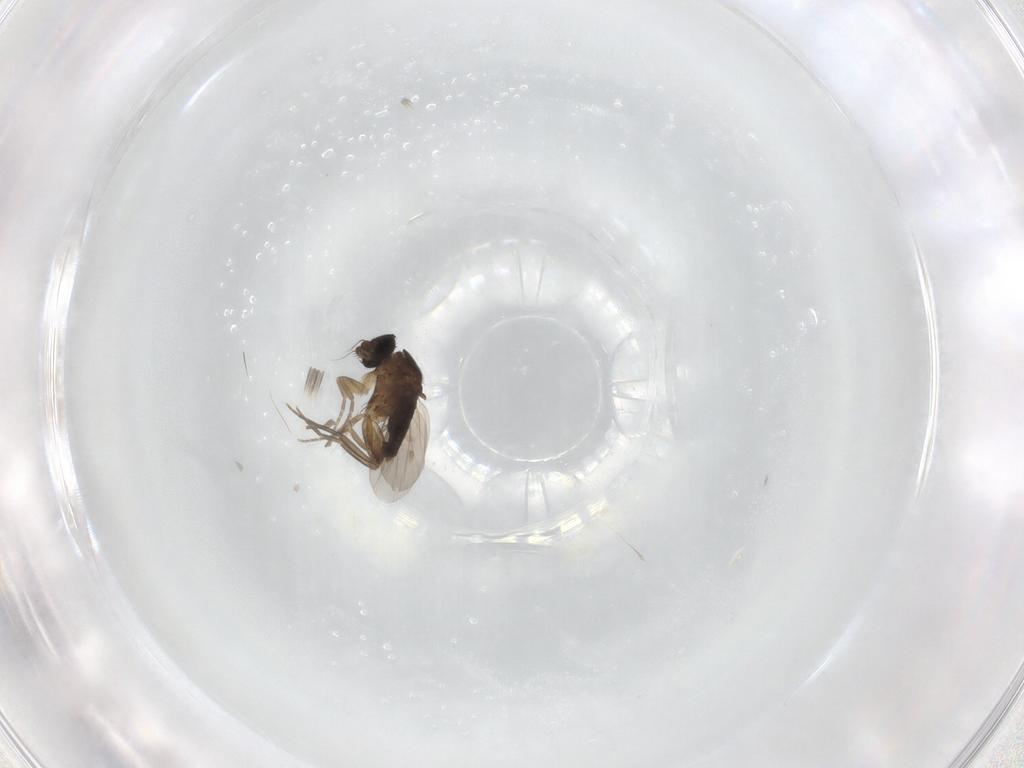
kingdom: Animalia
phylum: Arthropoda
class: Insecta
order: Diptera
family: Phoridae
